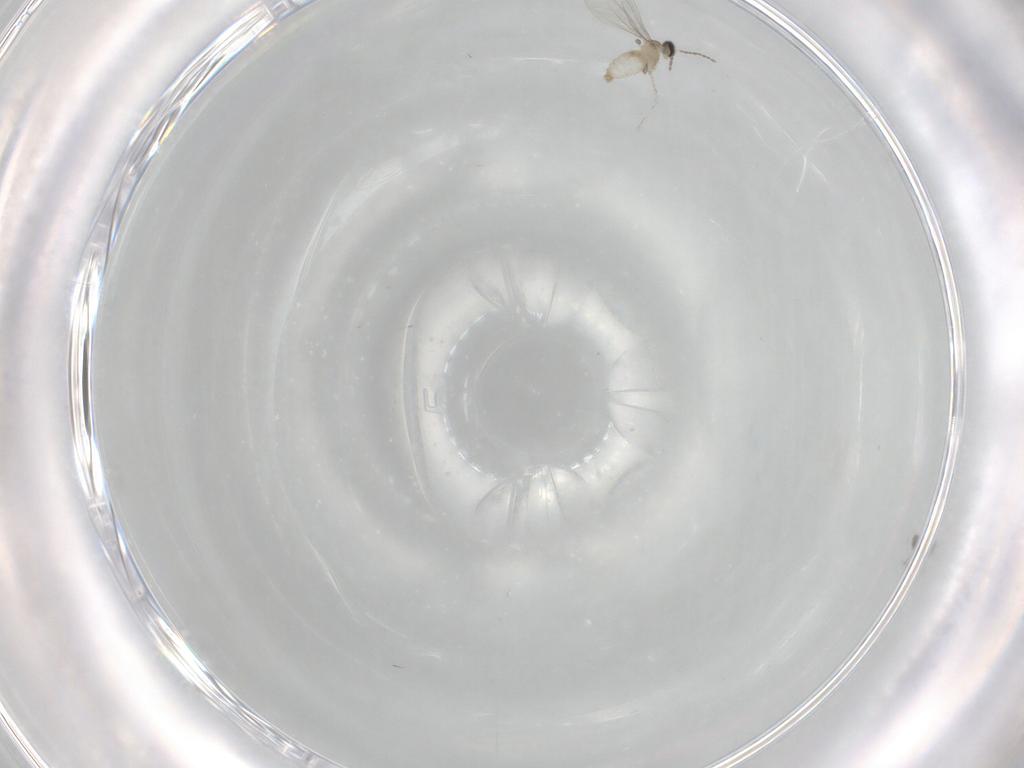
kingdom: Animalia
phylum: Arthropoda
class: Insecta
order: Diptera
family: Cecidomyiidae
